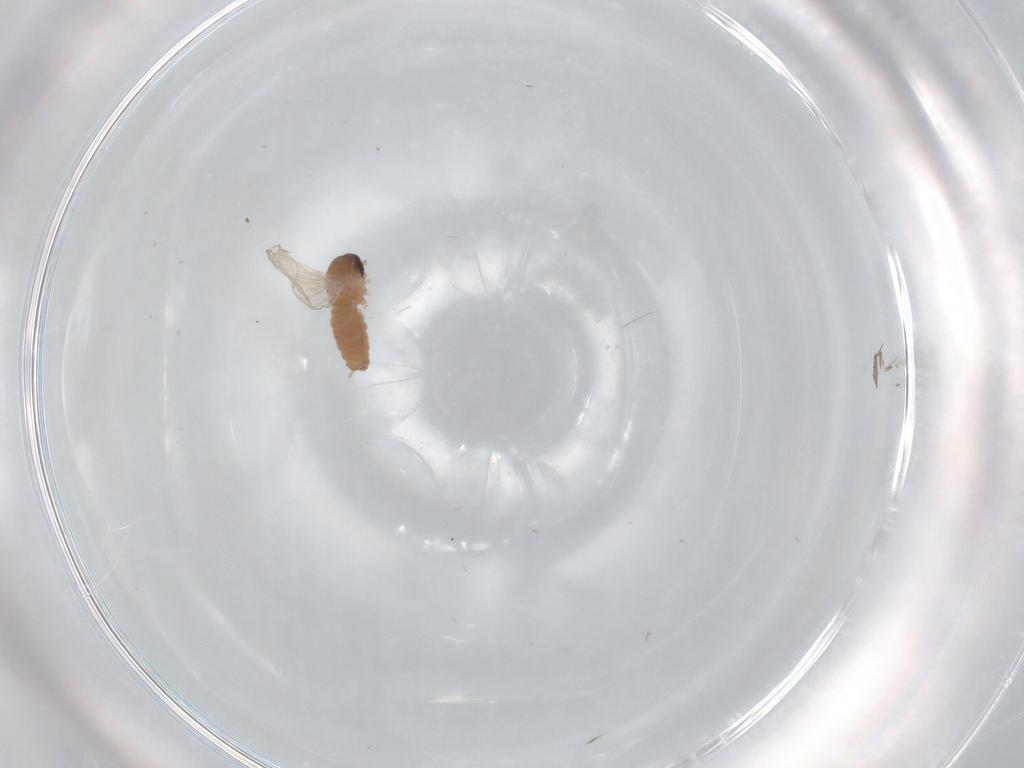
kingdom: Animalia
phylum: Arthropoda
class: Insecta
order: Diptera
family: Psychodidae
